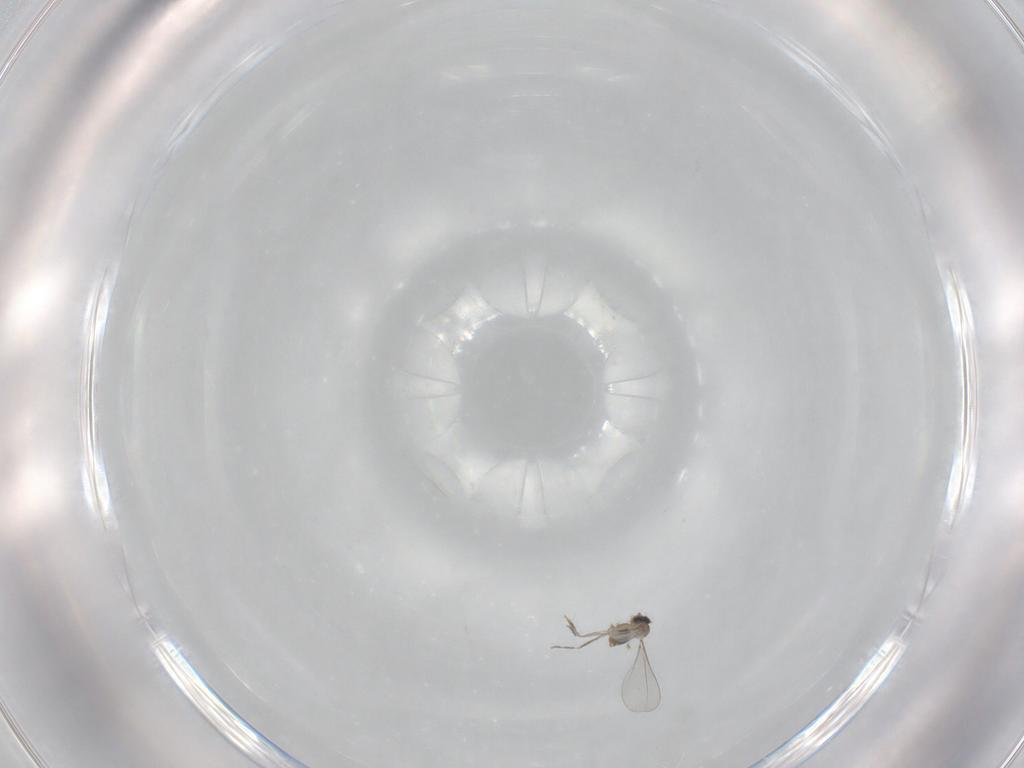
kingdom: Animalia
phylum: Arthropoda
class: Insecta
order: Diptera
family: Cecidomyiidae
